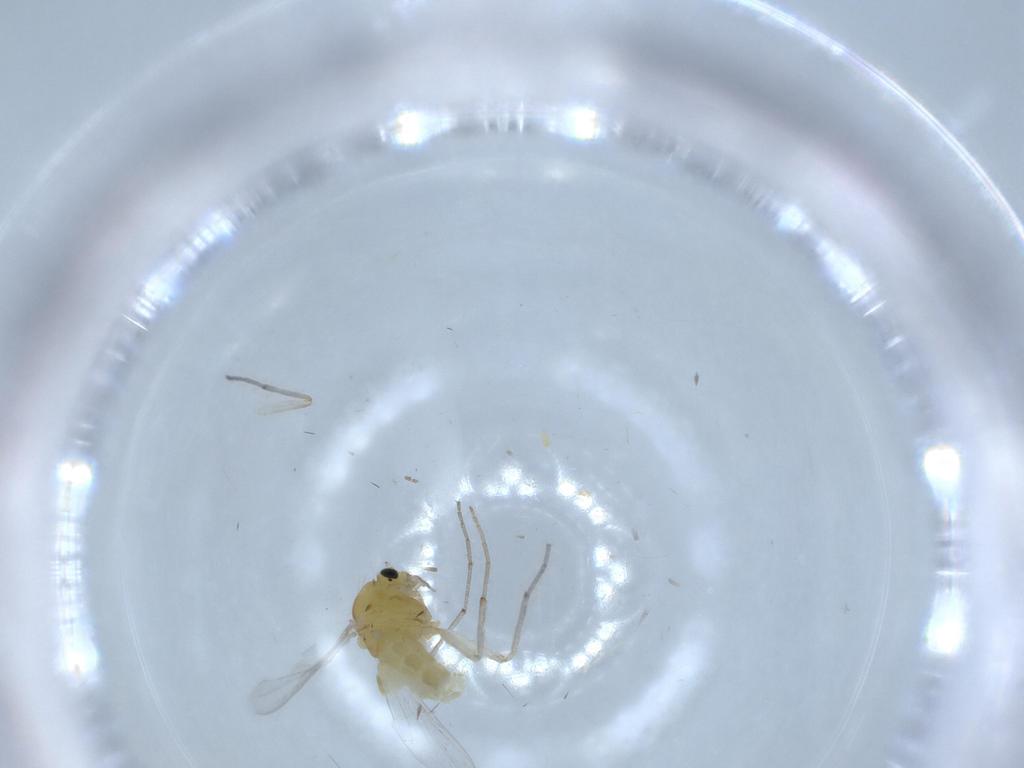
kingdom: Animalia
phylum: Arthropoda
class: Insecta
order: Diptera
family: Chironomidae
